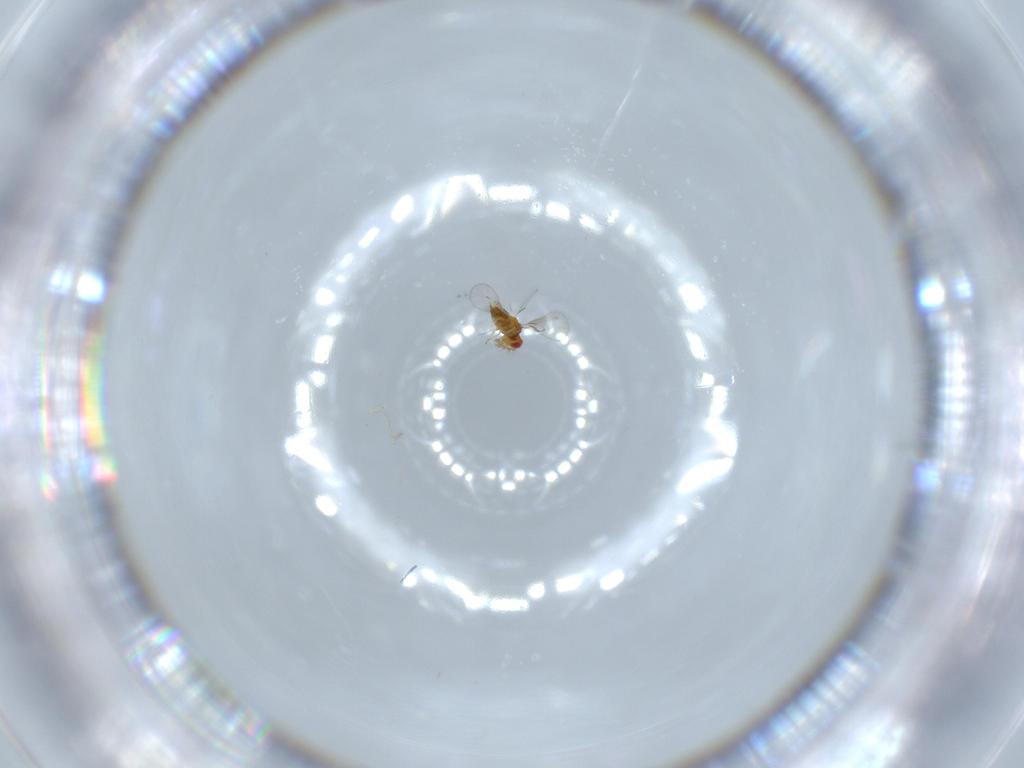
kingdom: Animalia
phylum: Arthropoda
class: Insecta
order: Hymenoptera
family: Trichogrammatidae
